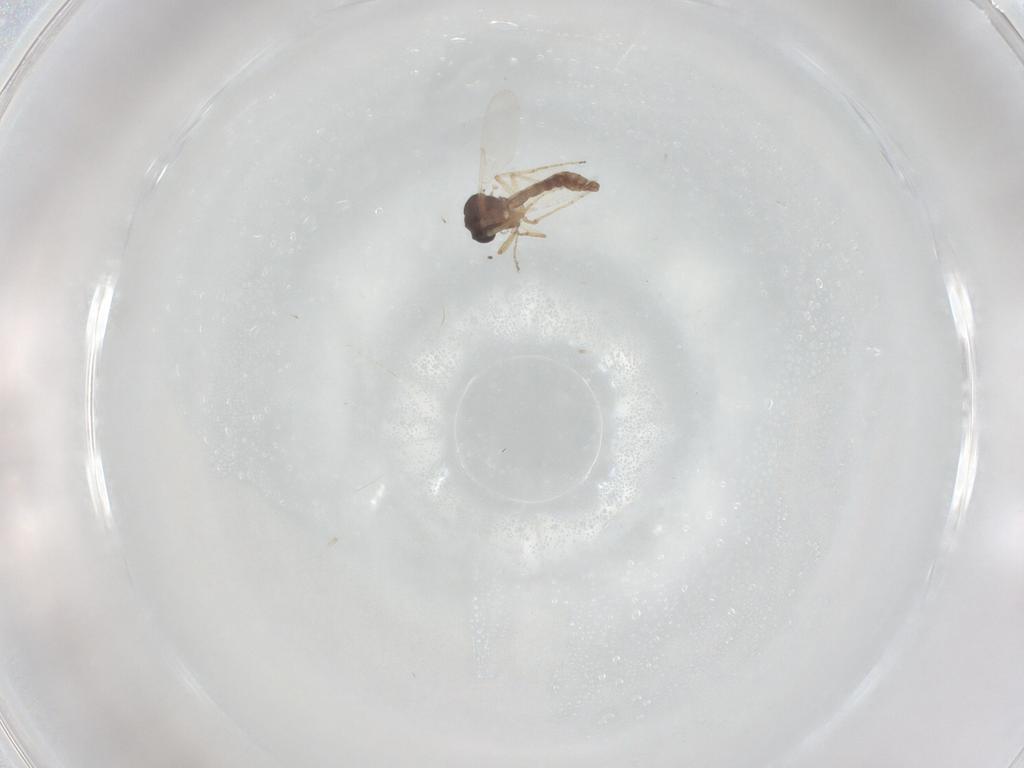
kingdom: Animalia
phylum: Arthropoda
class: Insecta
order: Diptera
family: Ceratopogonidae
